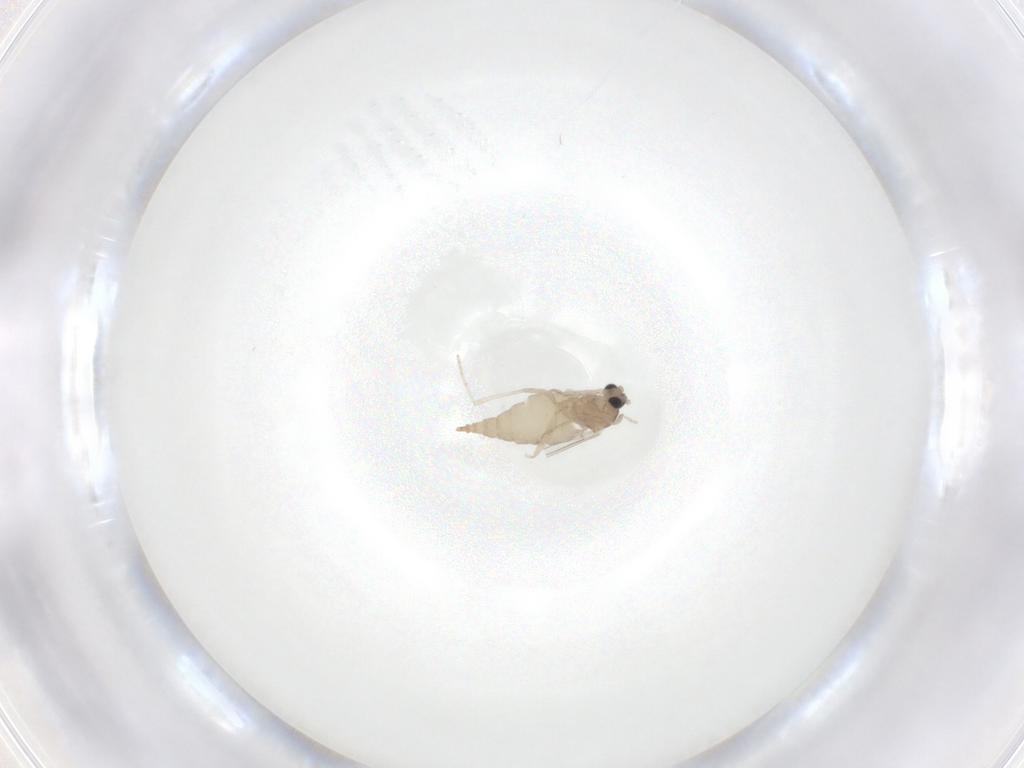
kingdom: Animalia
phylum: Arthropoda
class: Insecta
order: Diptera
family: Cecidomyiidae
